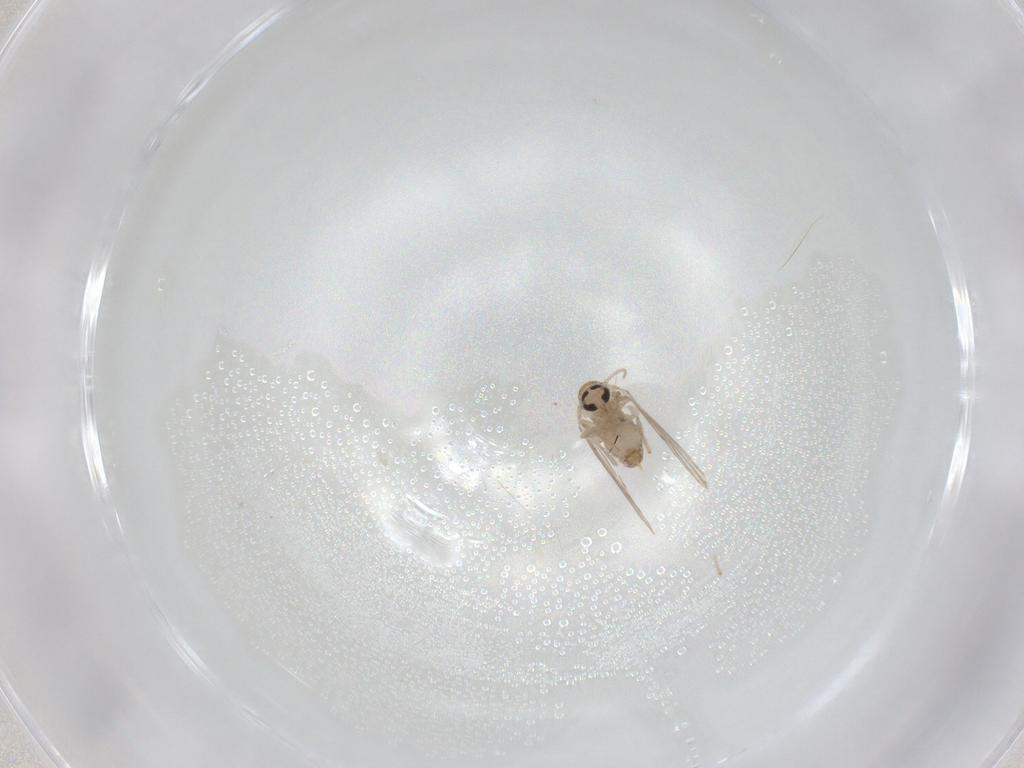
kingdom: Animalia
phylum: Arthropoda
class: Insecta
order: Diptera
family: Psychodidae
